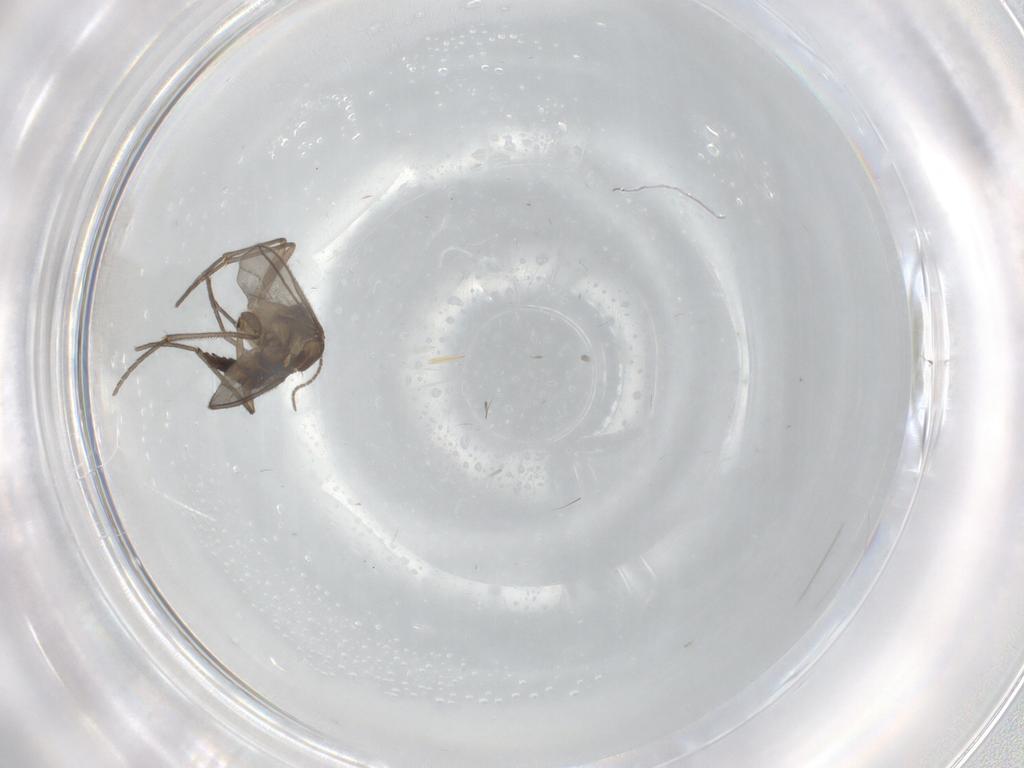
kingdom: Animalia
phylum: Arthropoda
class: Insecta
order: Diptera
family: Sciaridae
